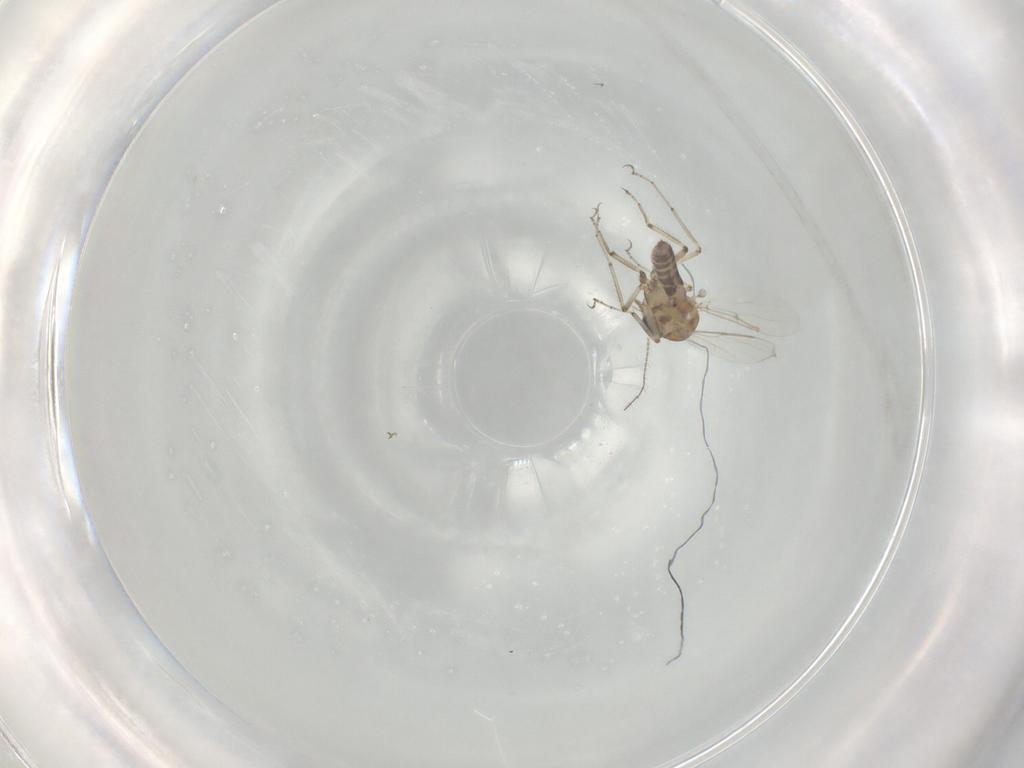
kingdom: Animalia
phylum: Arthropoda
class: Insecta
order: Diptera
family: Ceratopogonidae
